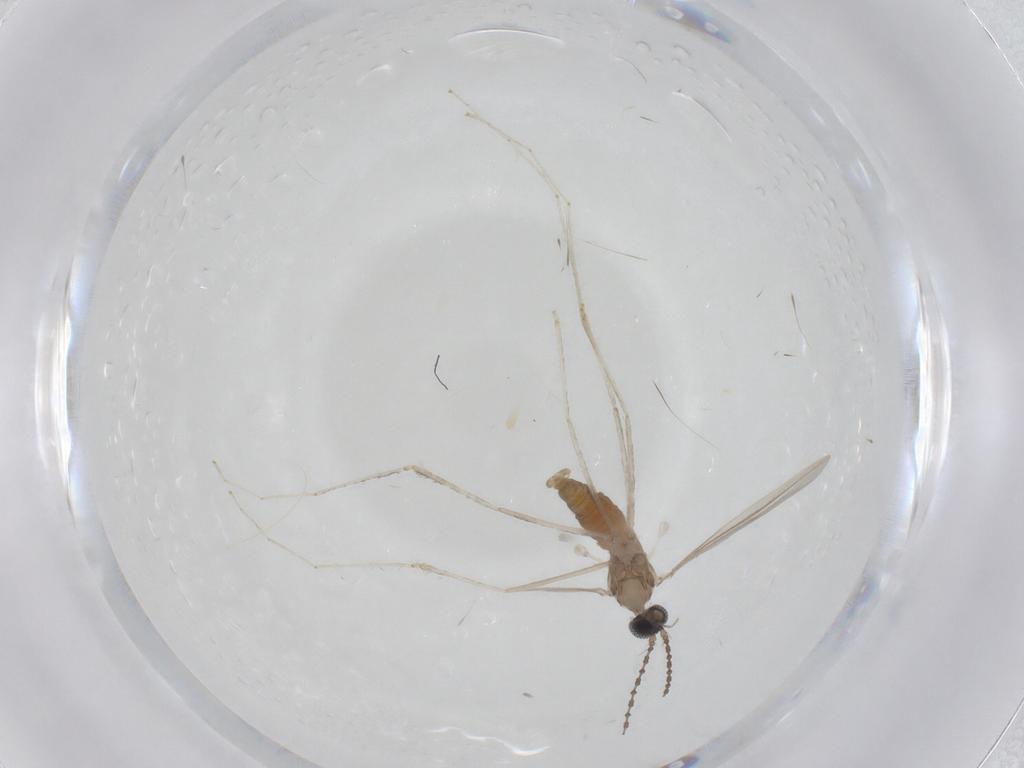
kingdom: Animalia
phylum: Arthropoda
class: Insecta
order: Diptera
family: Cecidomyiidae
